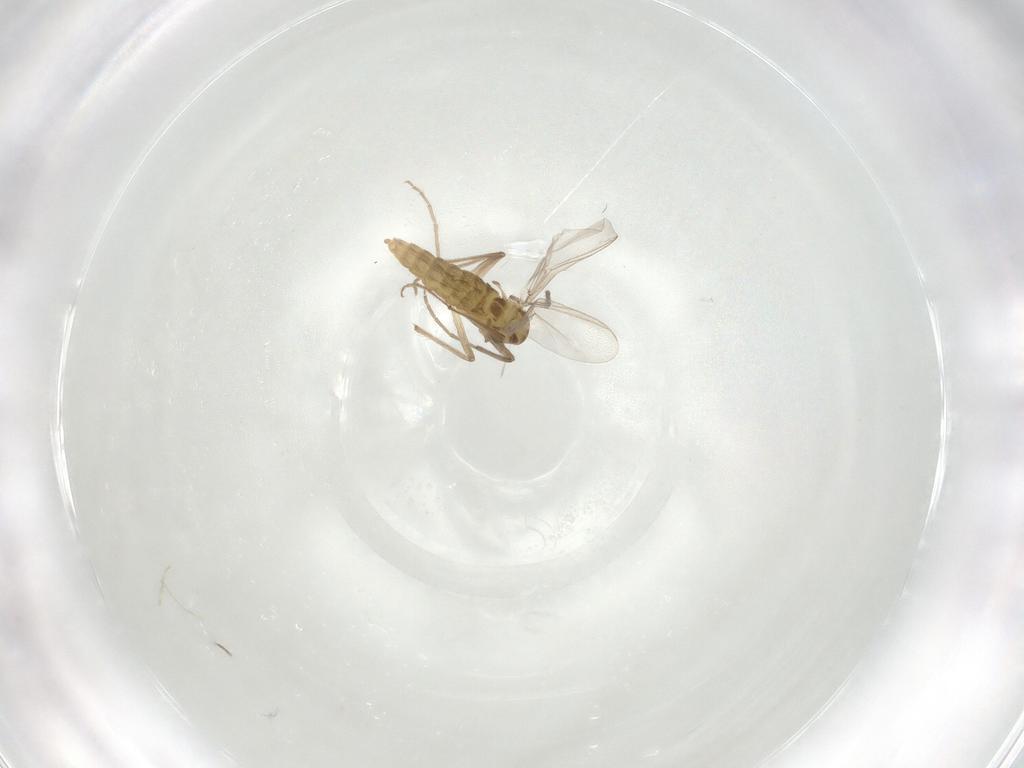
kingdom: Animalia
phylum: Arthropoda
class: Insecta
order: Diptera
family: Cecidomyiidae
